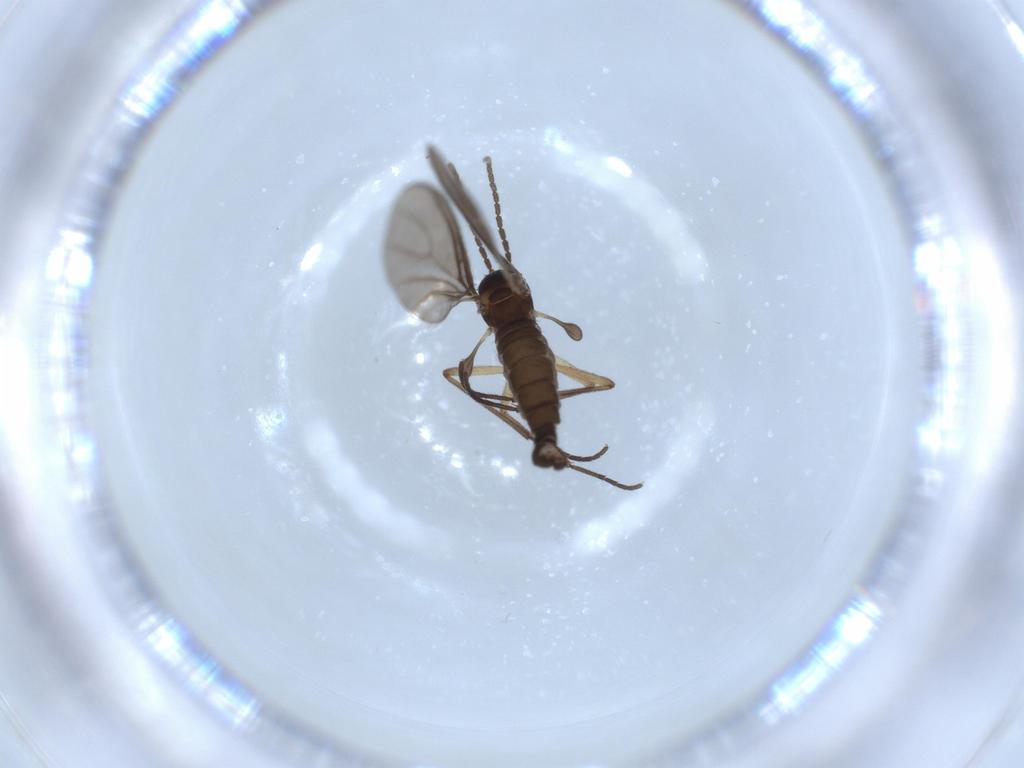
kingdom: Animalia
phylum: Arthropoda
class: Insecta
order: Diptera
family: Sciaridae
